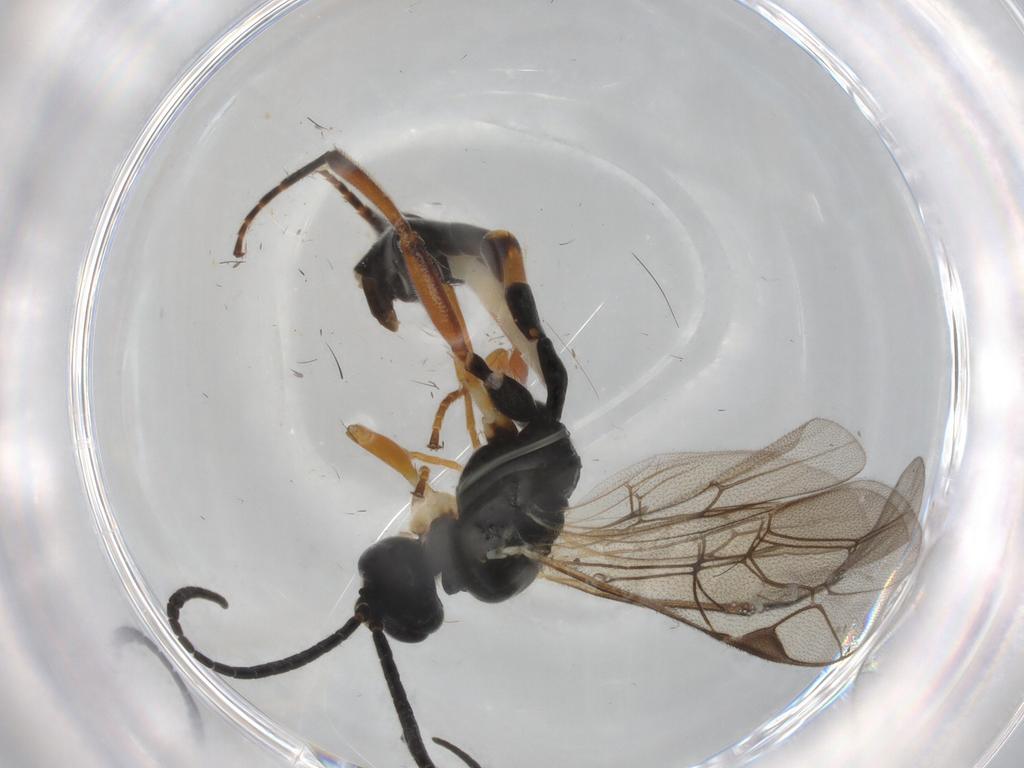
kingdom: Animalia
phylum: Arthropoda
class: Insecta
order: Hymenoptera
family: Ichneumonidae
